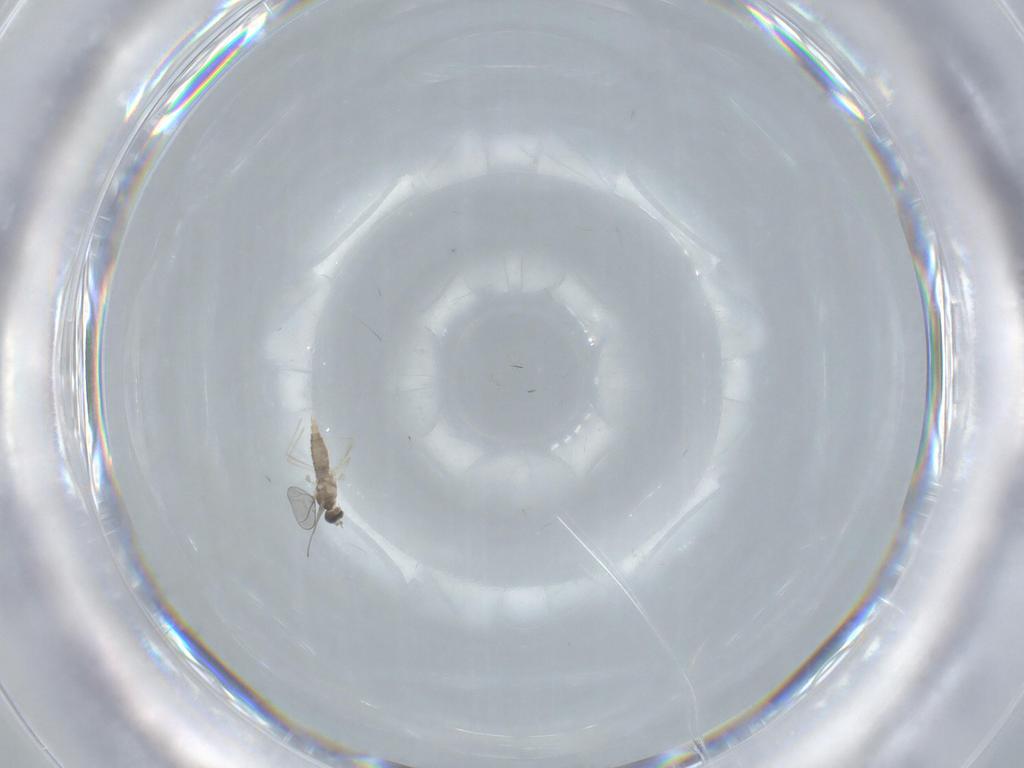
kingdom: Animalia
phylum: Arthropoda
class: Insecta
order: Diptera
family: Cecidomyiidae
